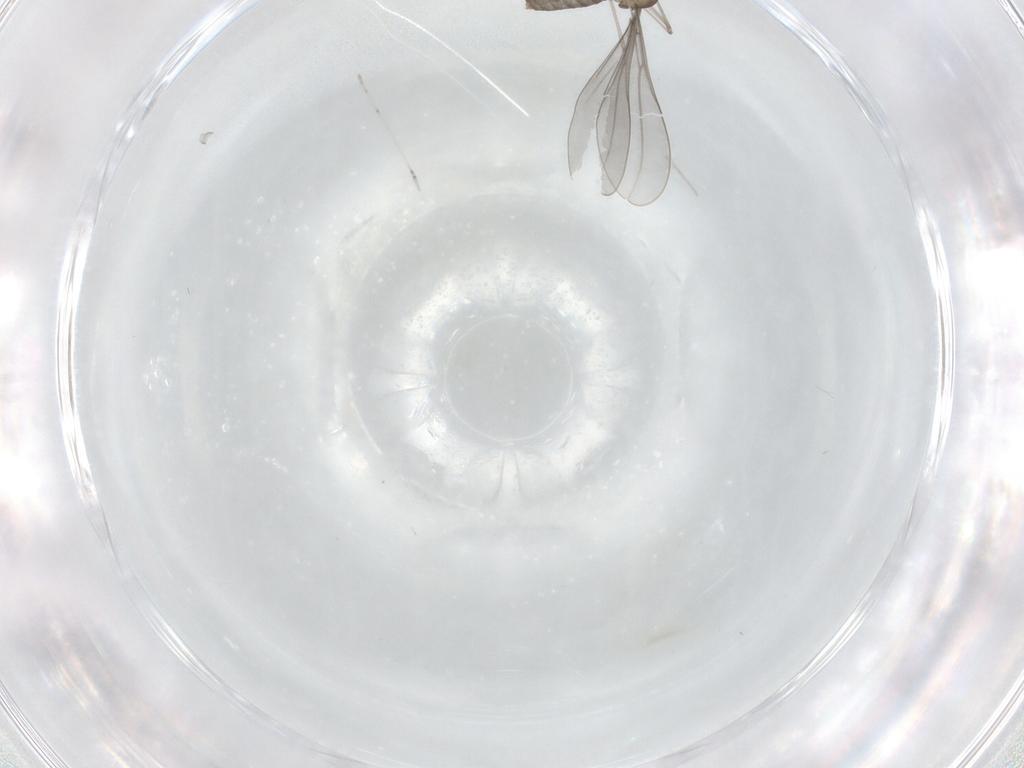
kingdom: Animalia
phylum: Arthropoda
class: Insecta
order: Diptera
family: Cecidomyiidae
